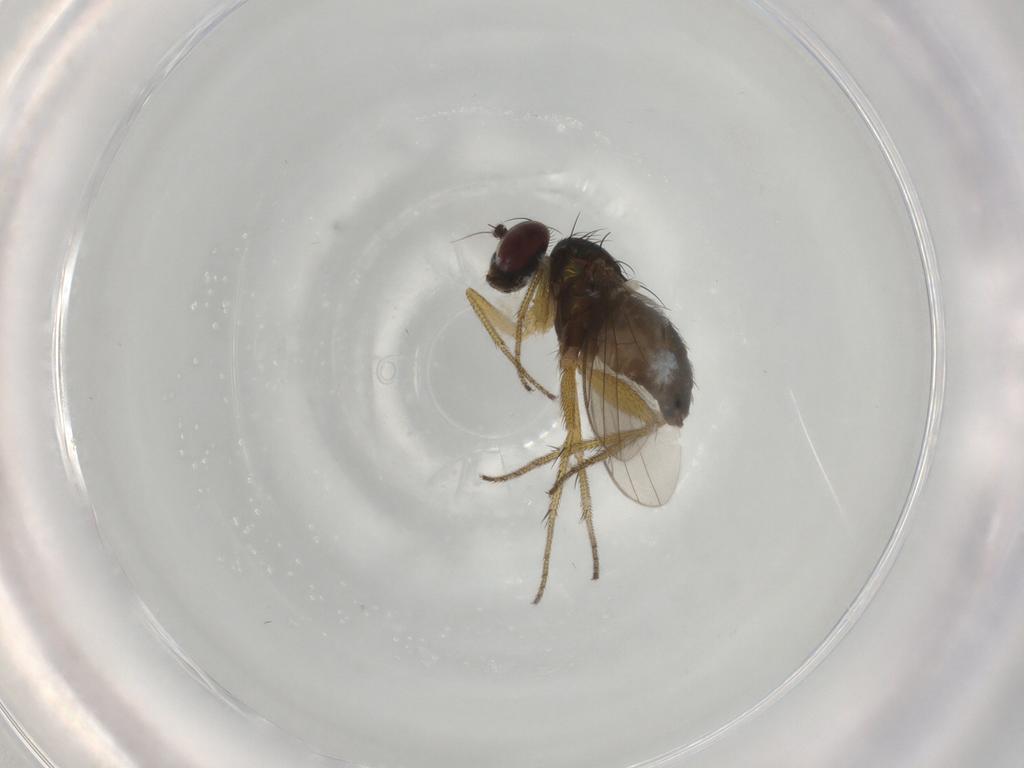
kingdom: Animalia
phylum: Arthropoda
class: Insecta
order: Diptera
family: Dolichopodidae
